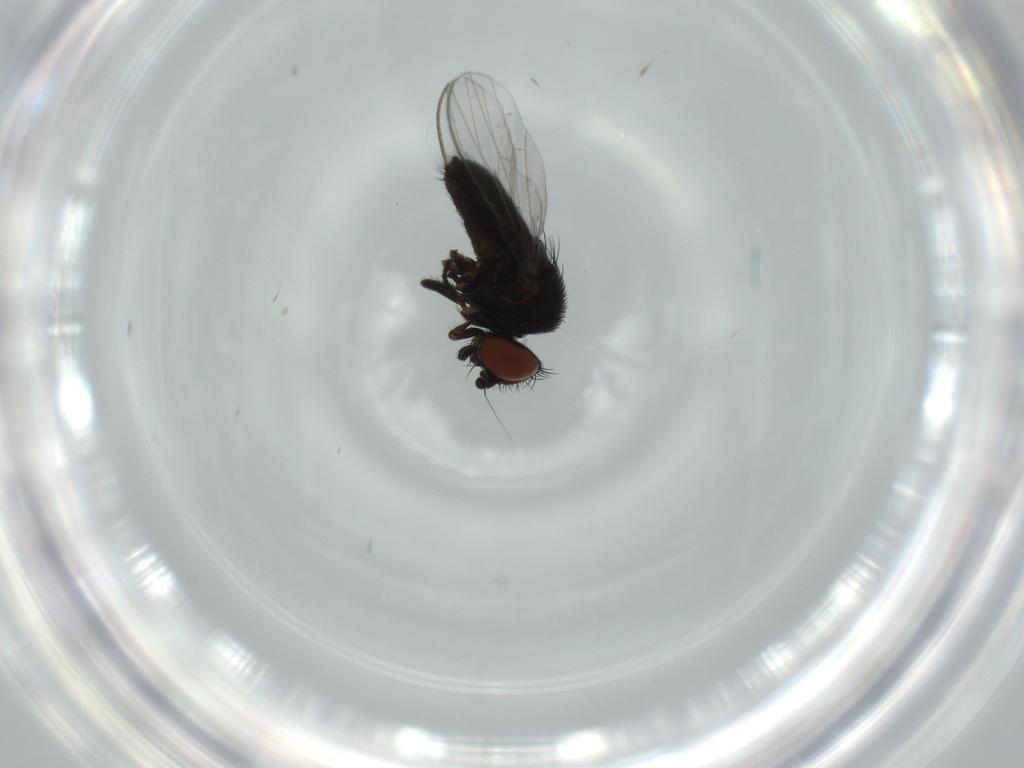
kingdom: Animalia
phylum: Arthropoda
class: Insecta
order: Diptera
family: Milichiidae
